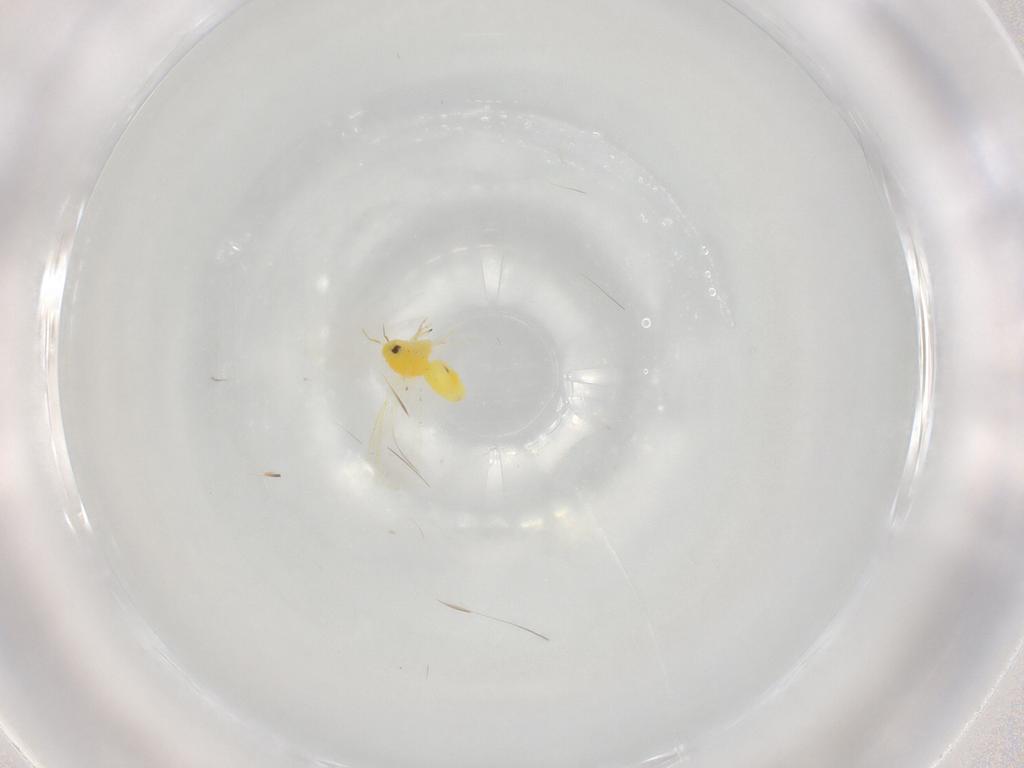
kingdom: Animalia
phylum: Arthropoda
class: Insecta
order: Hemiptera
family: Aleyrodidae
